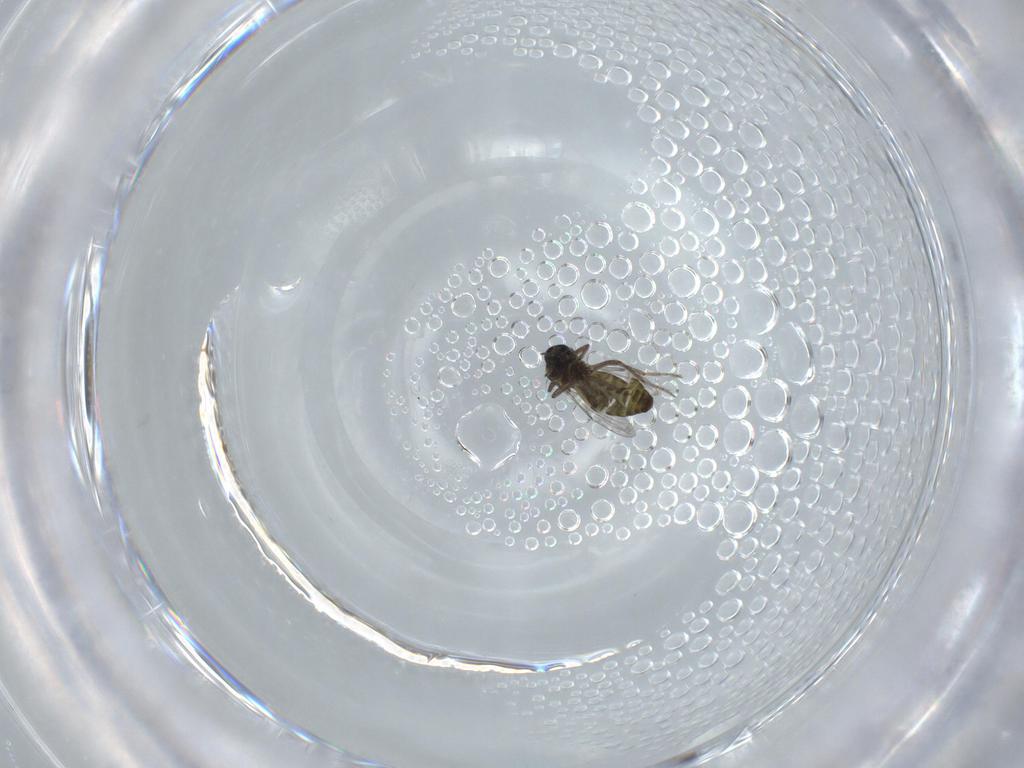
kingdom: Animalia
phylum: Arthropoda
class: Insecta
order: Diptera
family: Ceratopogonidae
